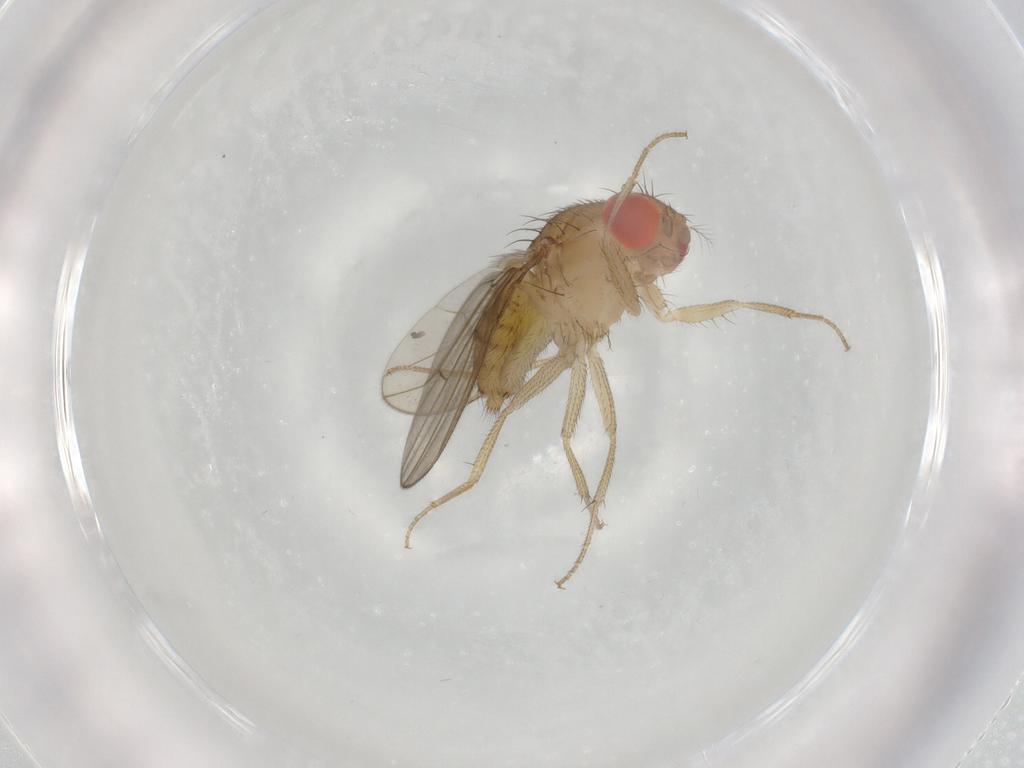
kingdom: Animalia
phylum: Arthropoda
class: Insecta
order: Diptera
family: Drosophilidae
